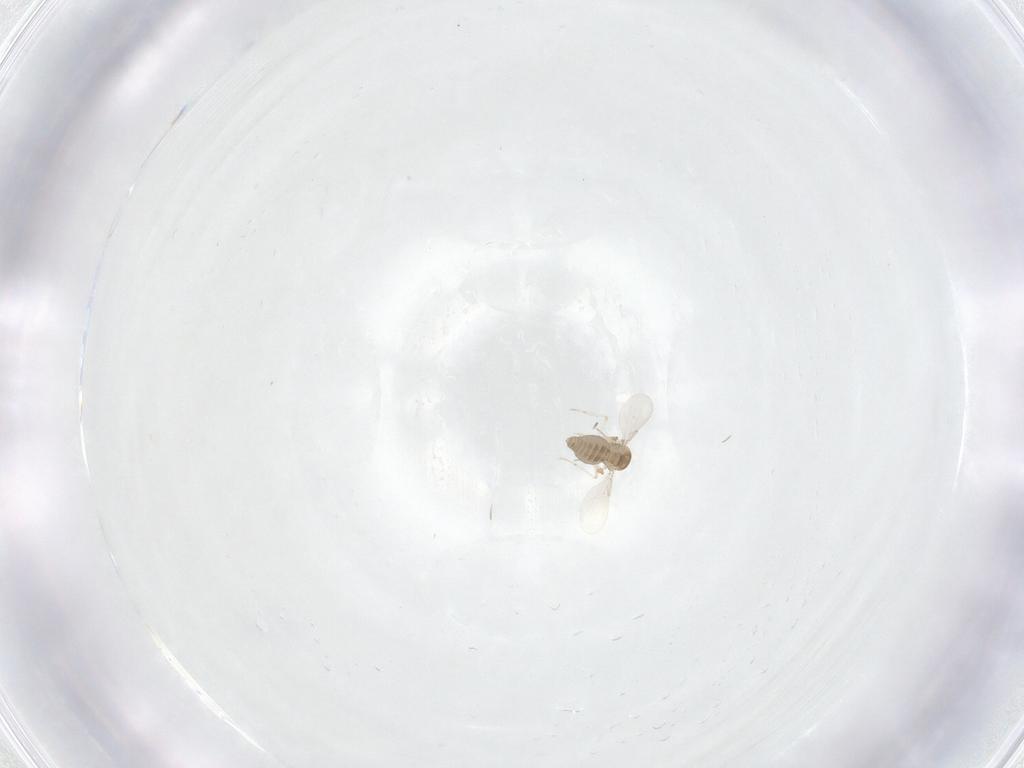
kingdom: Animalia
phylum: Arthropoda
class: Insecta
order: Diptera
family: Ceratopogonidae
